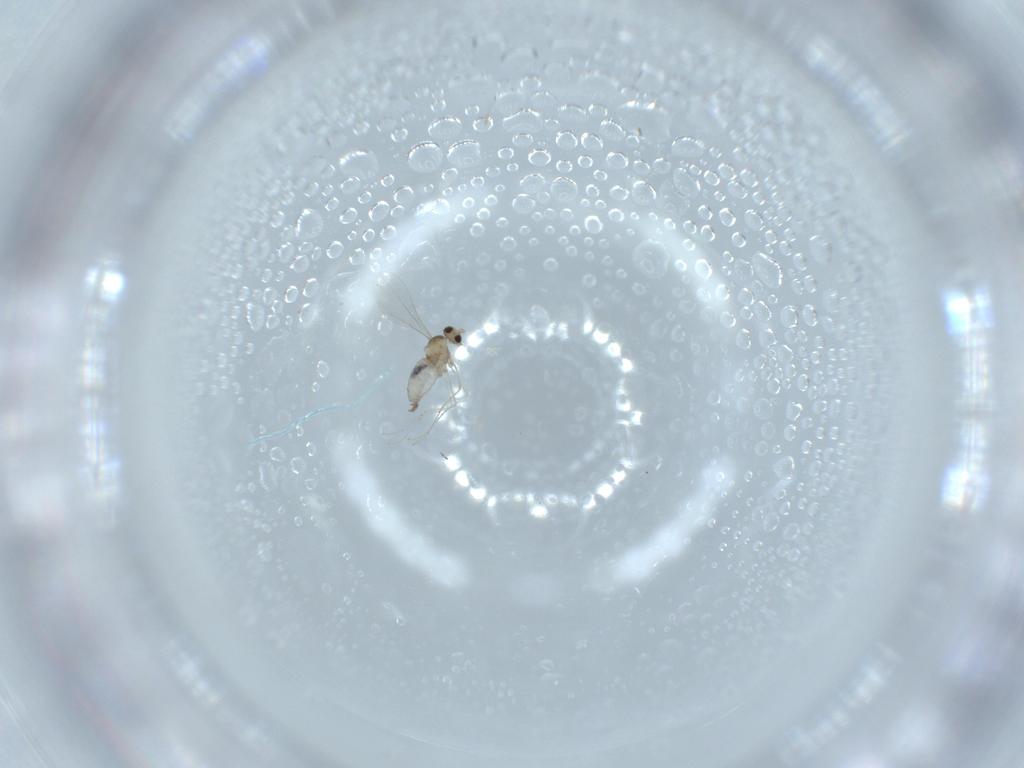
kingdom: Animalia
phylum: Arthropoda
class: Insecta
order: Diptera
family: Cecidomyiidae
